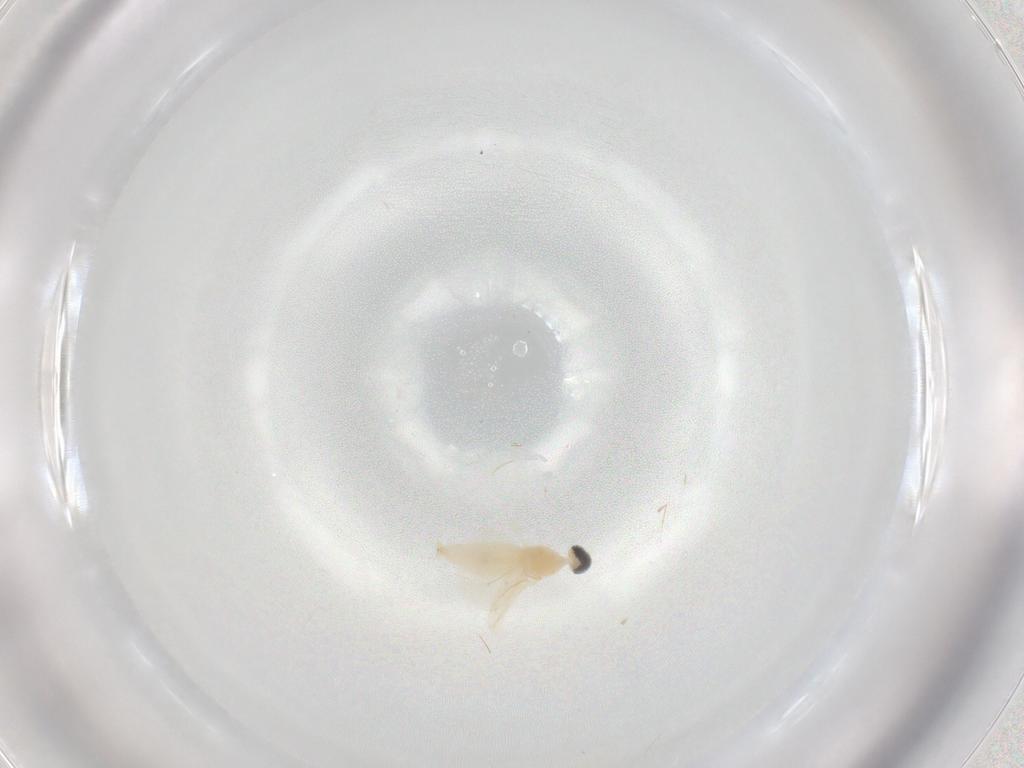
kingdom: Animalia
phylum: Arthropoda
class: Insecta
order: Diptera
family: Cecidomyiidae
